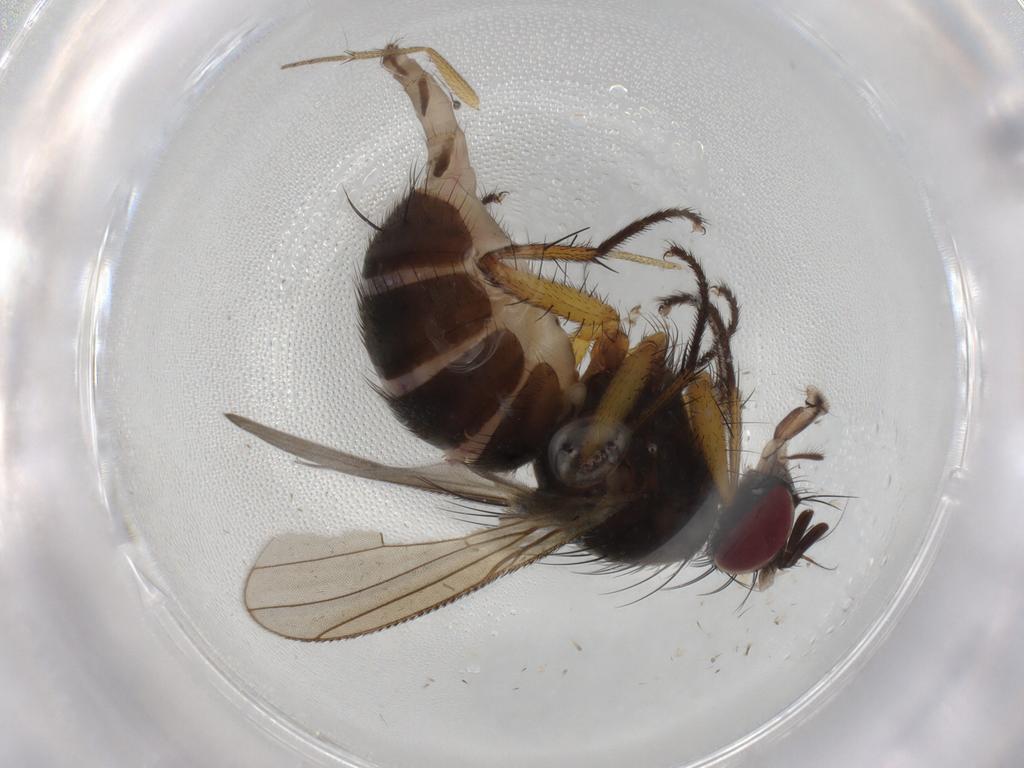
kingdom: Animalia
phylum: Arthropoda
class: Insecta
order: Diptera
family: Muscidae
